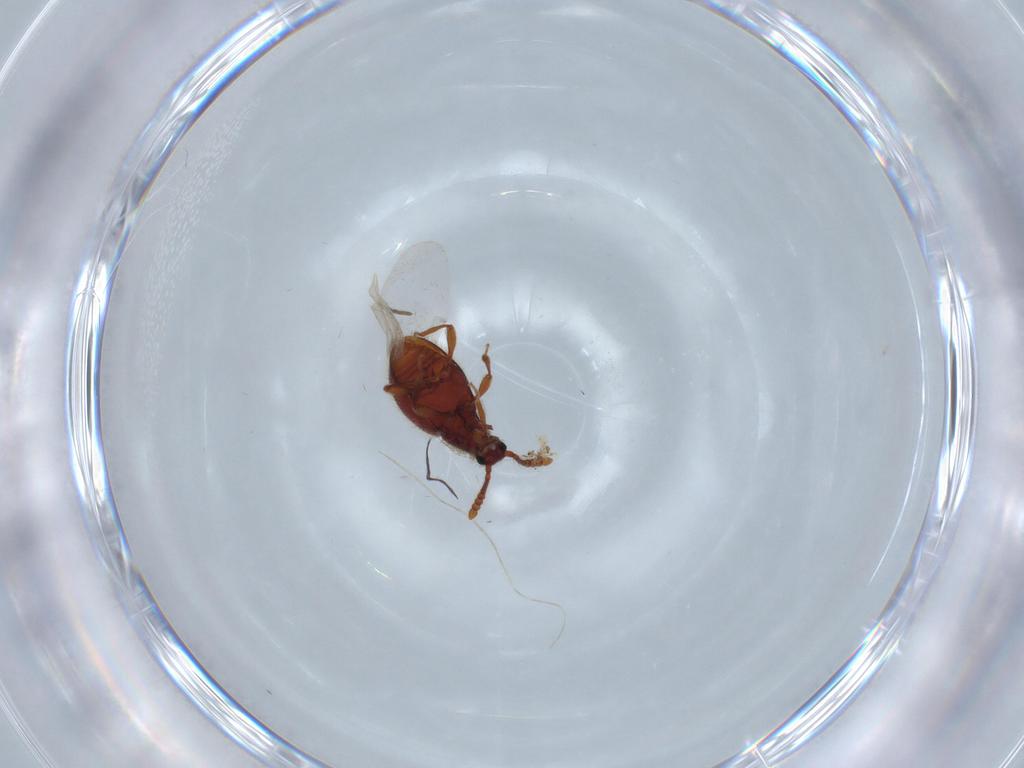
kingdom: Animalia
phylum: Arthropoda
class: Insecta
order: Coleoptera
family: Staphylinidae
